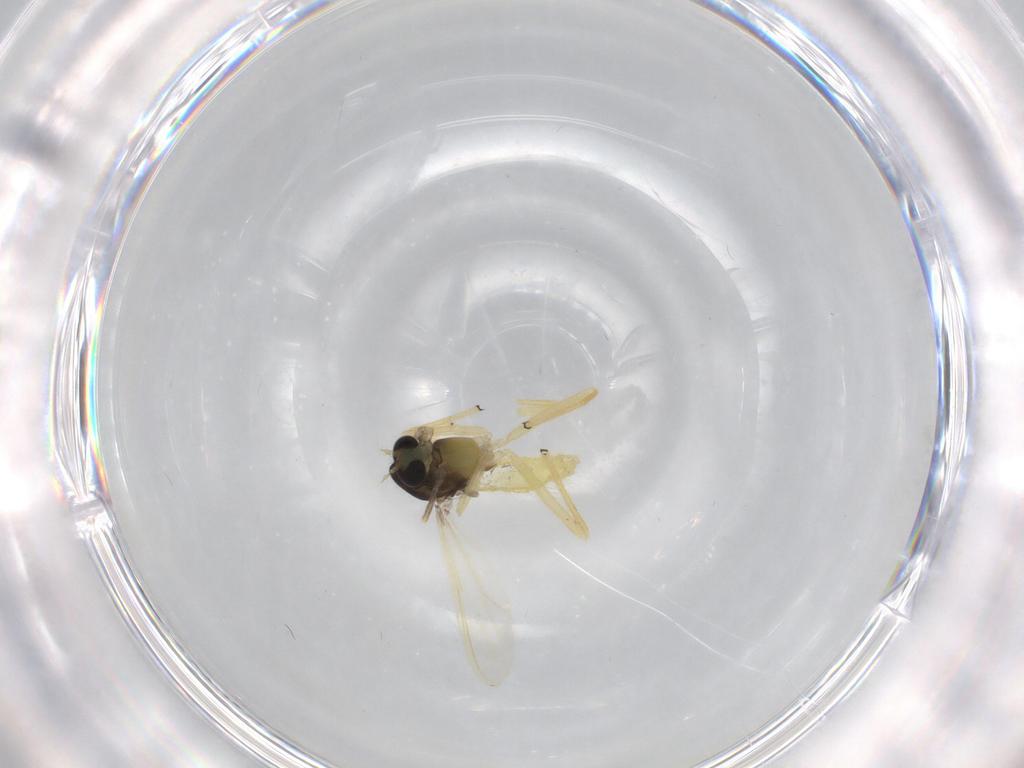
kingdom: Animalia
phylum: Arthropoda
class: Insecta
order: Diptera
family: Chironomidae
